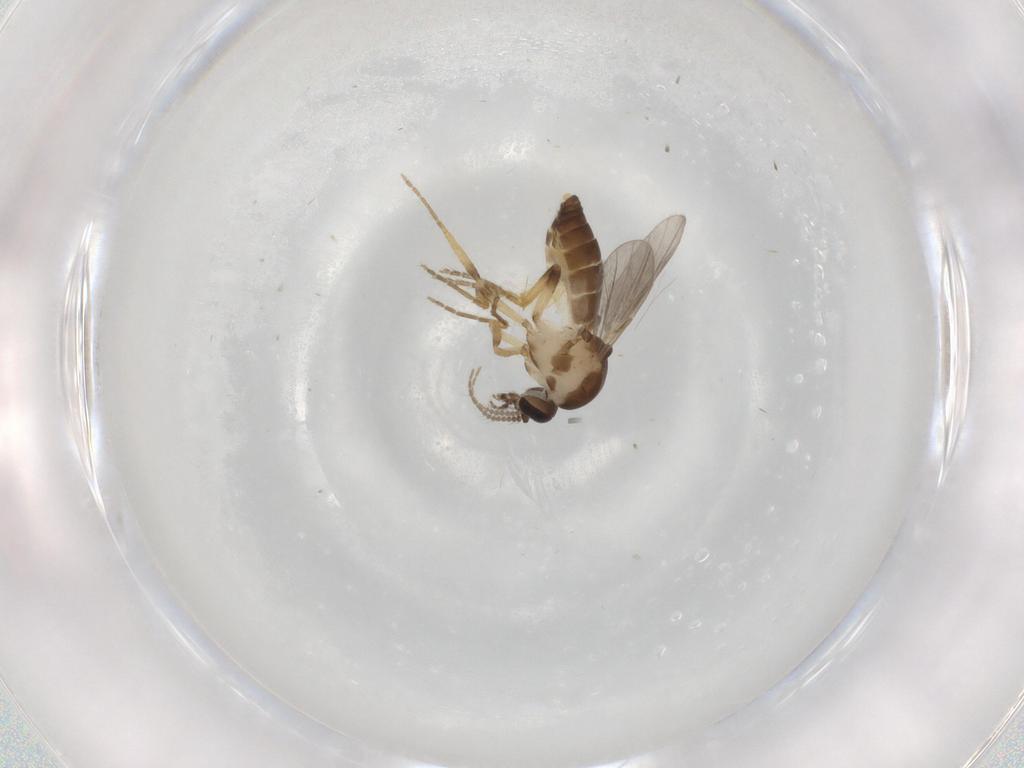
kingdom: Animalia
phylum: Arthropoda
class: Insecta
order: Diptera
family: Ceratopogonidae
